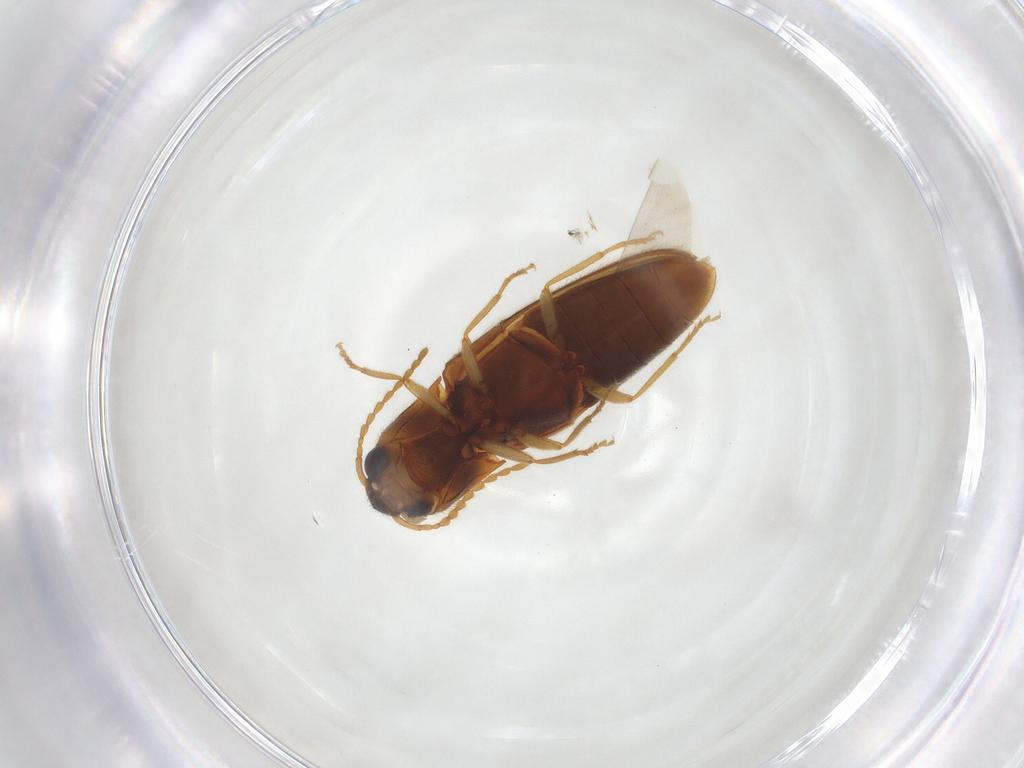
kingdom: Animalia
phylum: Arthropoda
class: Insecta
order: Coleoptera
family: Elateridae
